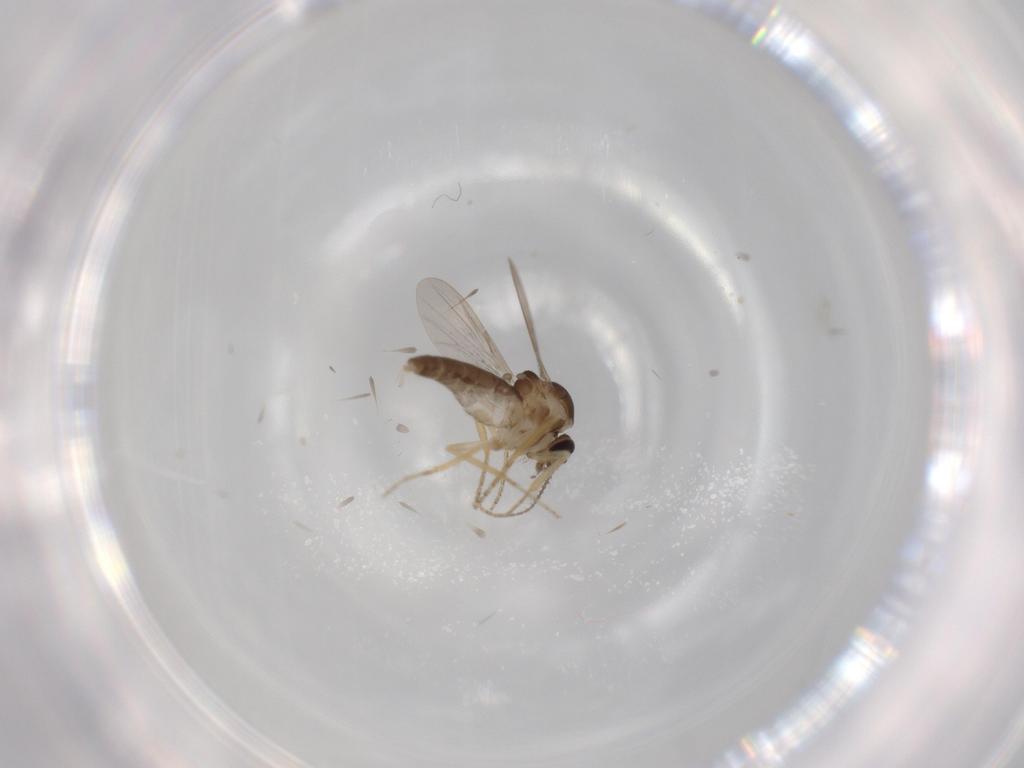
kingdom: Animalia
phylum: Arthropoda
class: Insecta
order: Diptera
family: Ceratopogonidae
